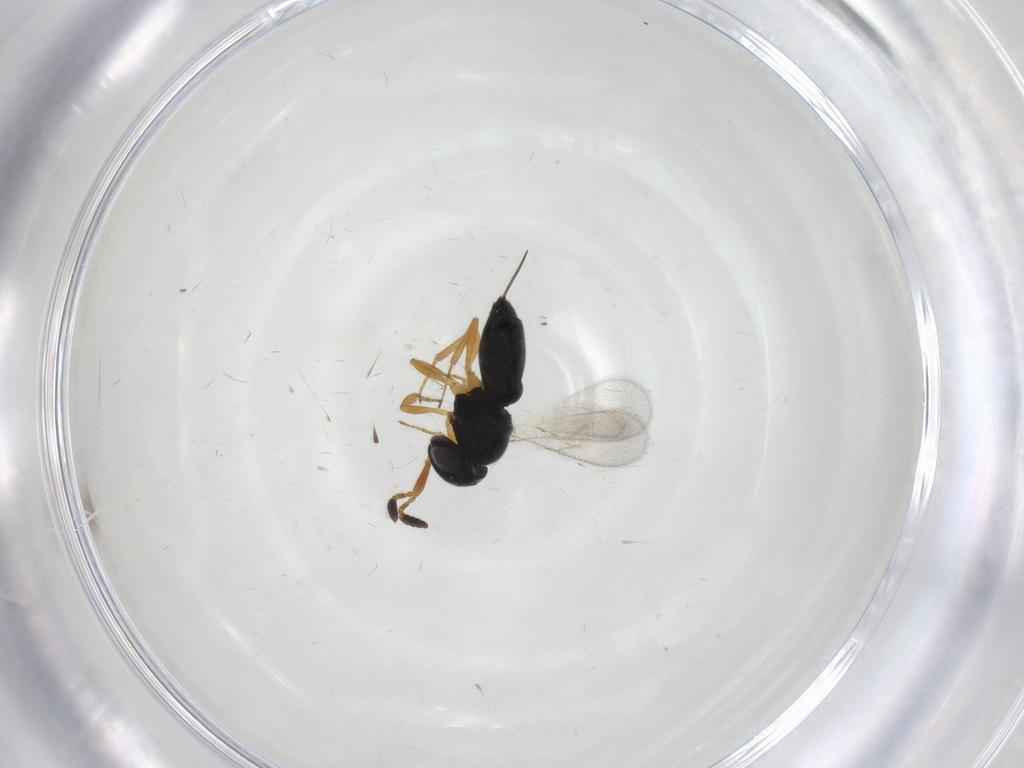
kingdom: Animalia
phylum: Arthropoda
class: Insecta
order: Hymenoptera
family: Scelionidae
